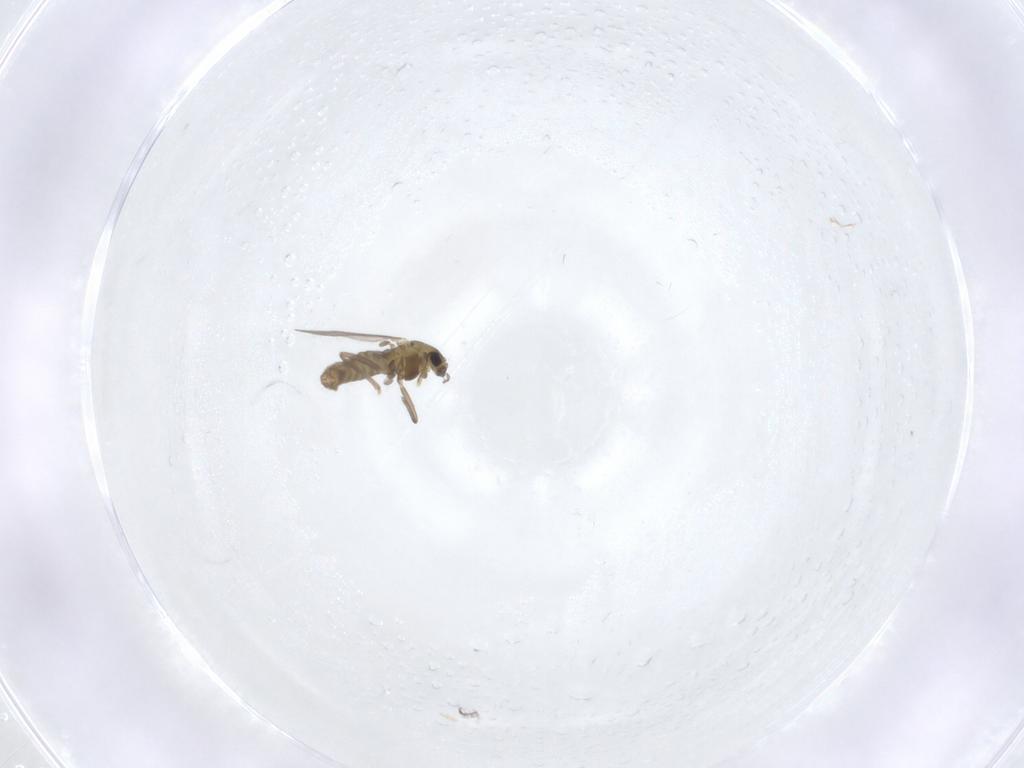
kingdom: Animalia
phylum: Arthropoda
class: Insecta
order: Diptera
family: Chironomidae
